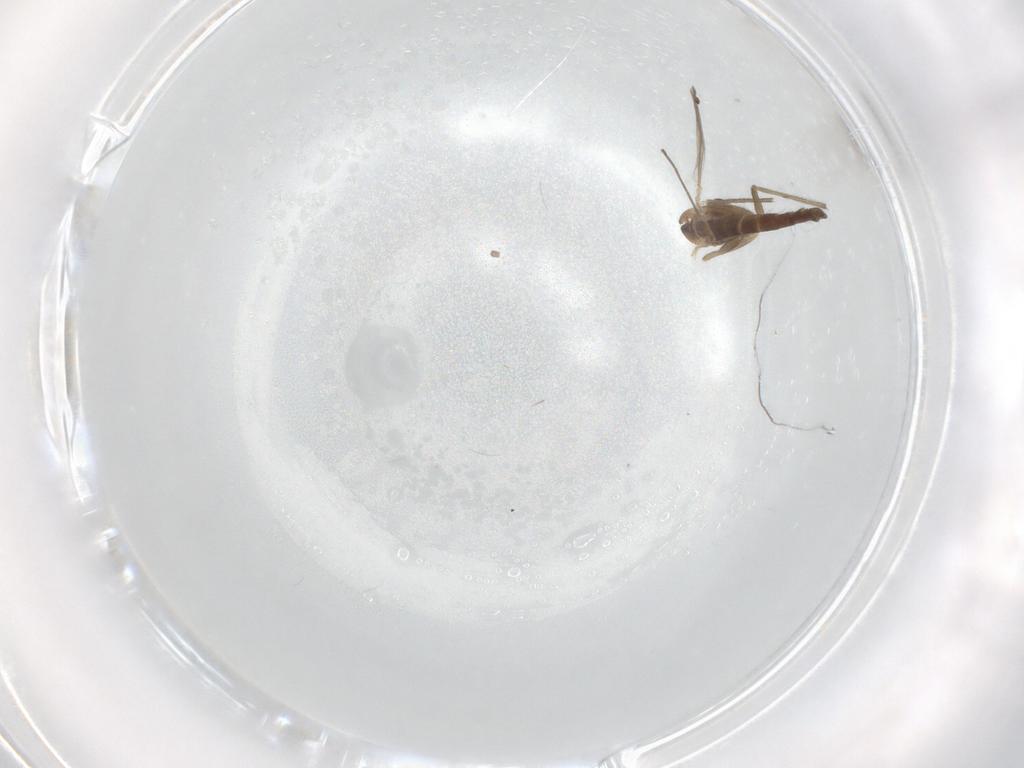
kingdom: Animalia
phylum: Arthropoda
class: Insecta
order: Diptera
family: Chironomidae
